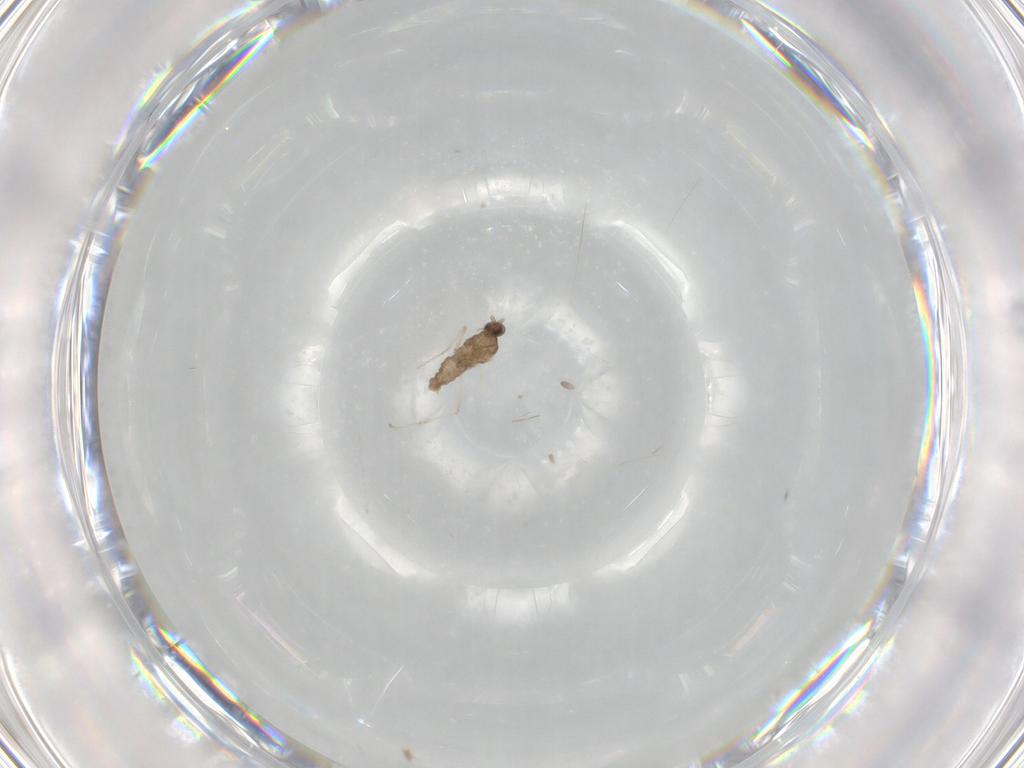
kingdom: Animalia
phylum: Arthropoda
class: Insecta
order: Diptera
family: Cecidomyiidae
